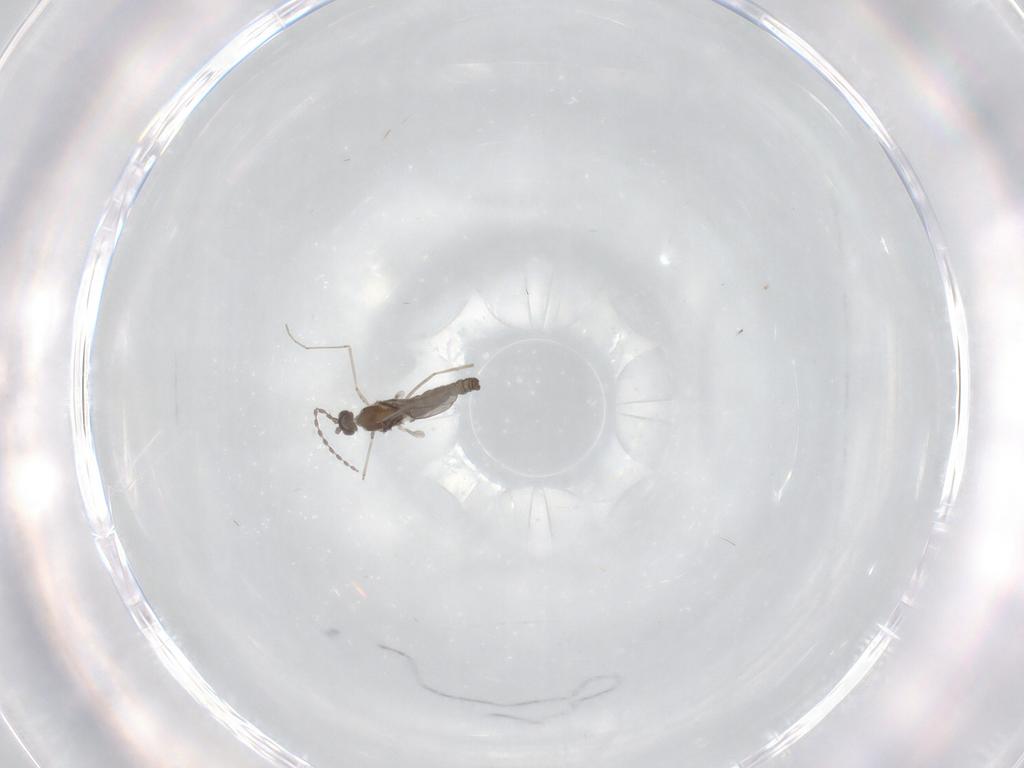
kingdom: Animalia
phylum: Arthropoda
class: Insecta
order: Diptera
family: Cecidomyiidae
